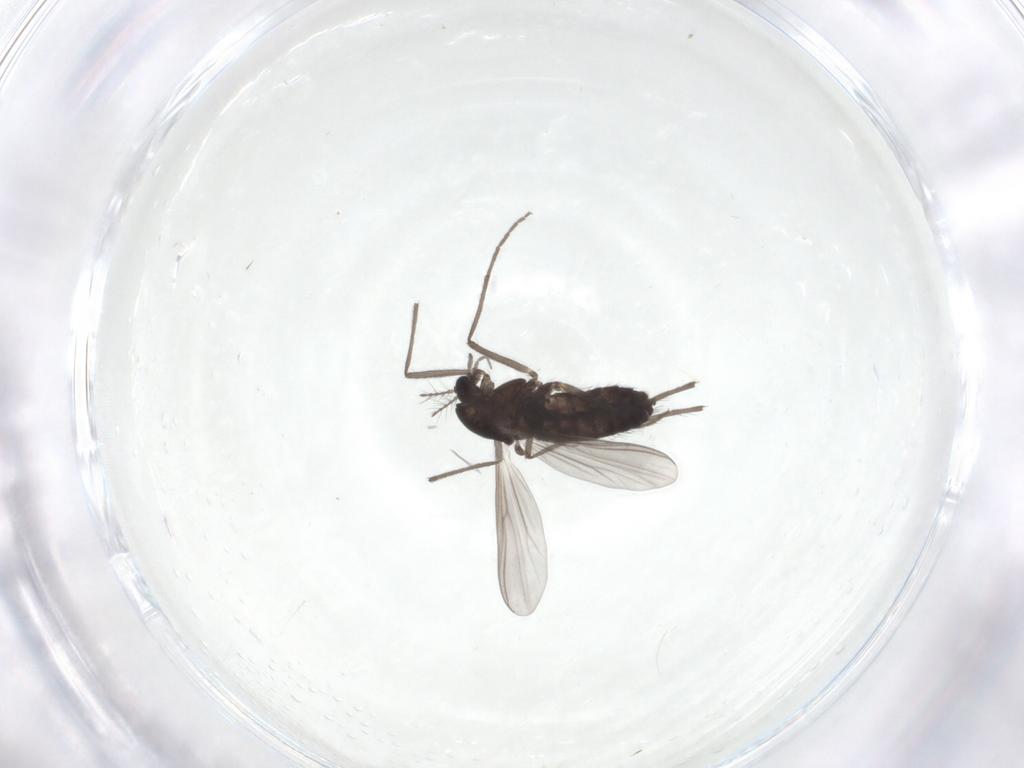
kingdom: Animalia
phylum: Arthropoda
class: Insecta
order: Diptera
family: Chironomidae
